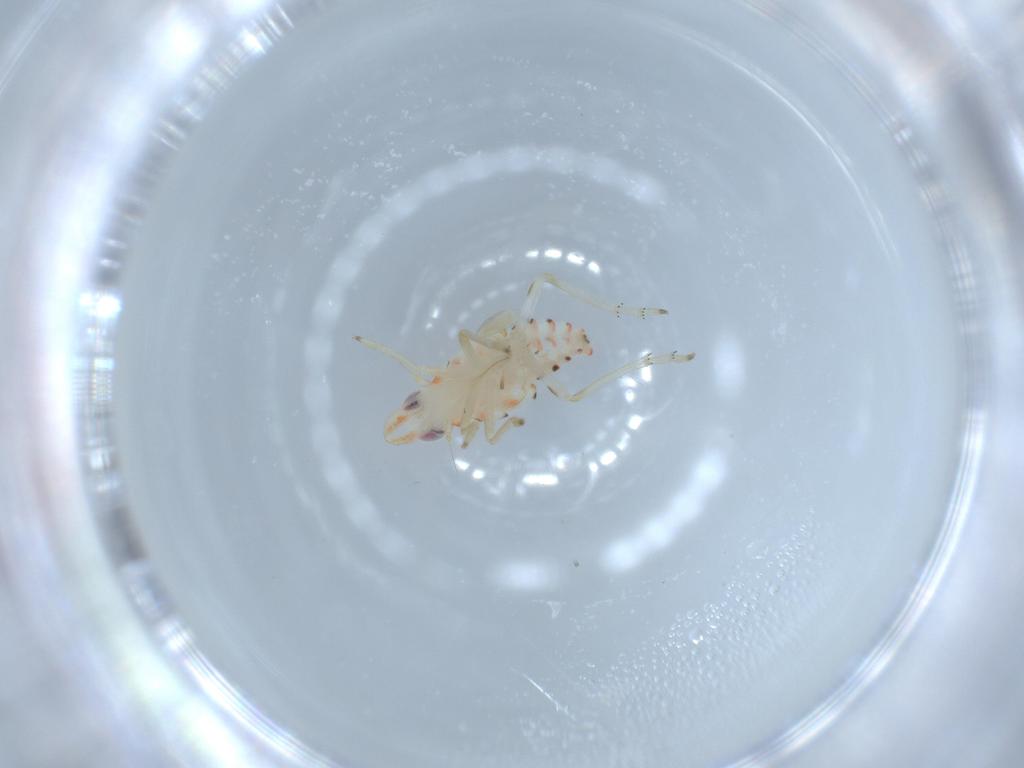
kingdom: Animalia
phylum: Arthropoda
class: Insecta
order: Hemiptera
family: Tropiduchidae
